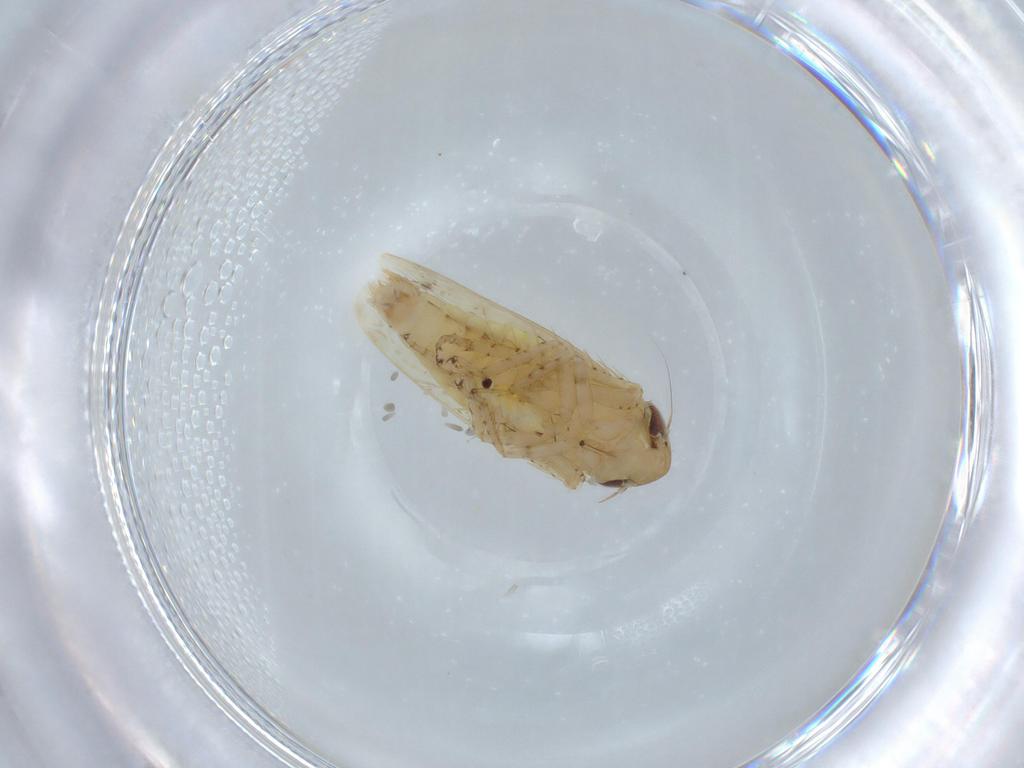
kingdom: Animalia
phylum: Arthropoda
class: Insecta
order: Hemiptera
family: Cicadellidae
